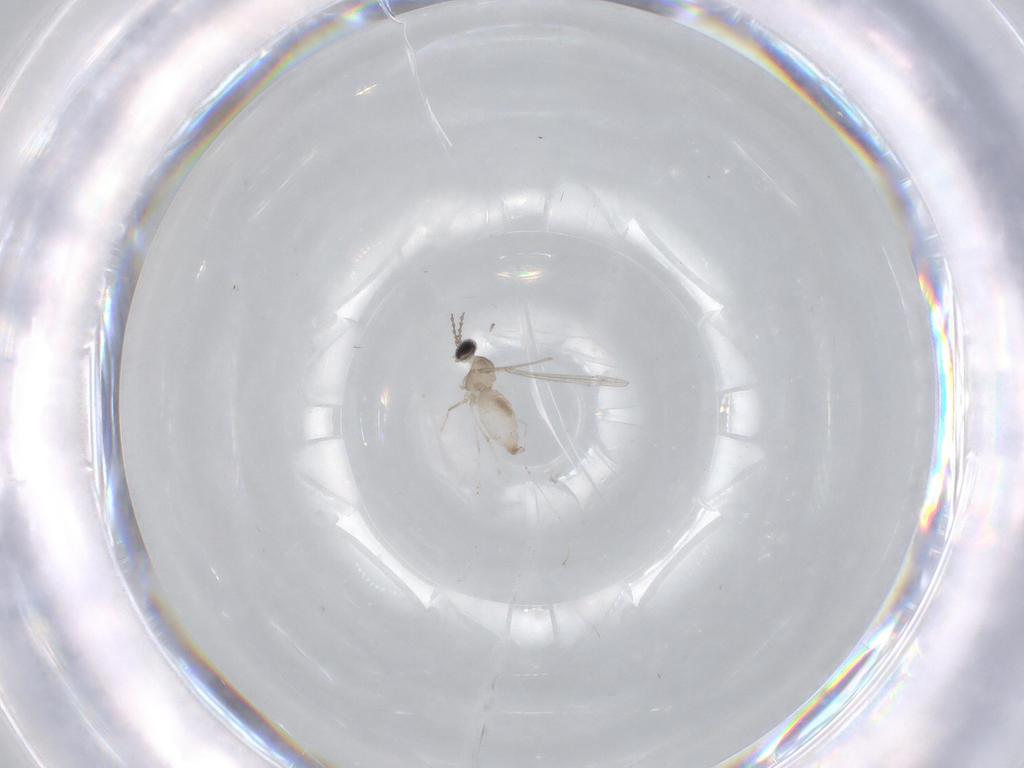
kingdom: Animalia
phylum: Arthropoda
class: Insecta
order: Diptera
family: Cecidomyiidae
